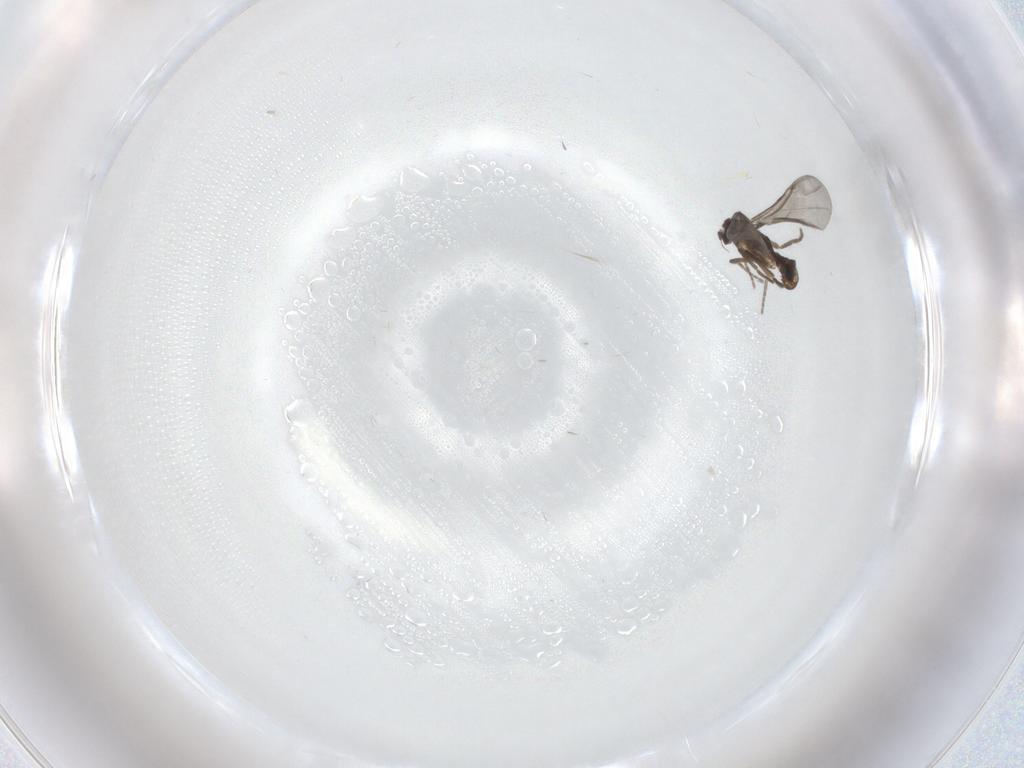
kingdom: Animalia
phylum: Arthropoda
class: Insecta
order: Diptera
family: Phoridae
